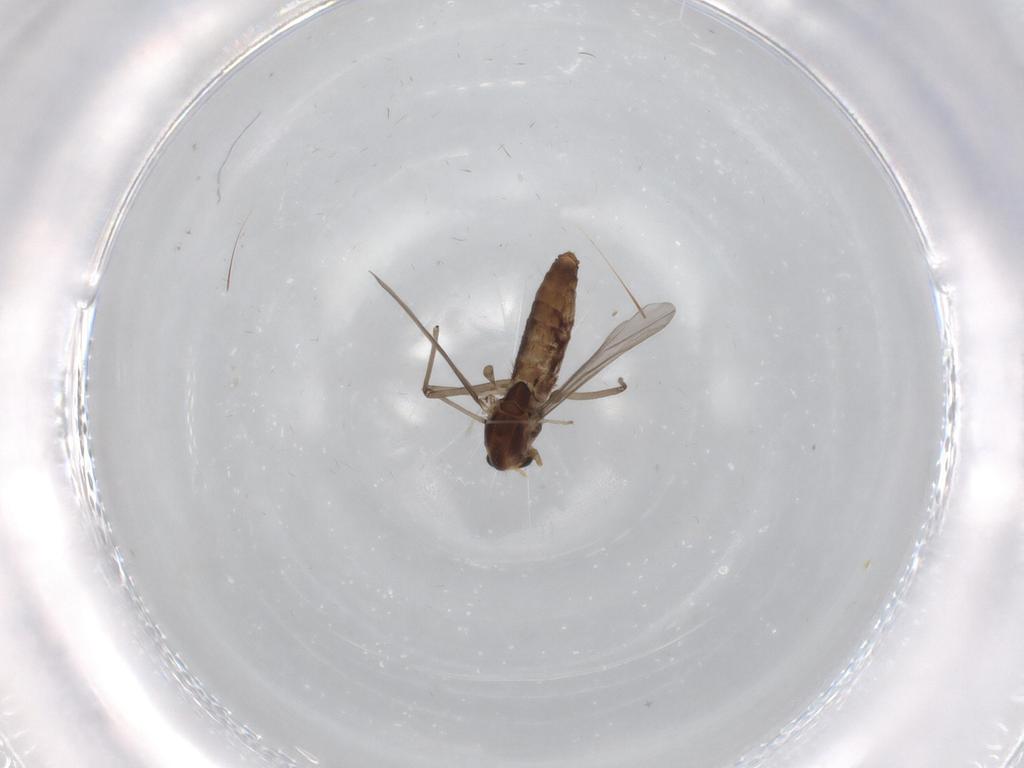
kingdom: Animalia
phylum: Arthropoda
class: Insecta
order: Diptera
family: Chironomidae
